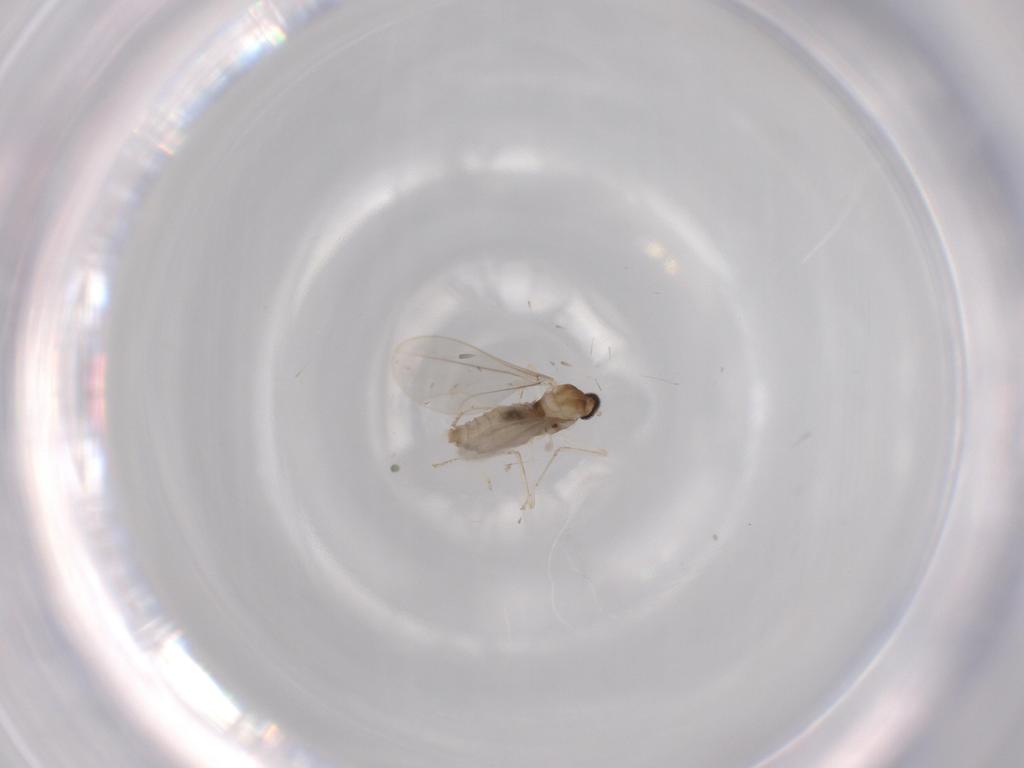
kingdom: Animalia
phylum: Arthropoda
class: Insecta
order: Diptera
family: Cecidomyiidae
